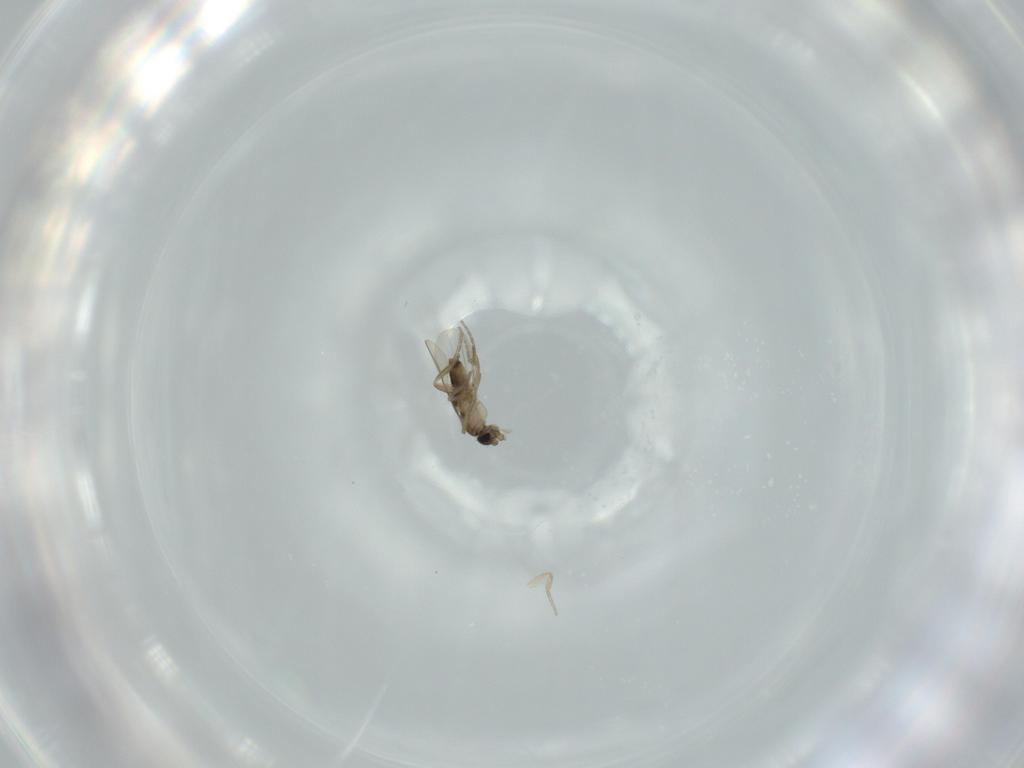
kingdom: Animalia
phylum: Arthropoda
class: Insecta
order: Diptera
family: Phoridae
